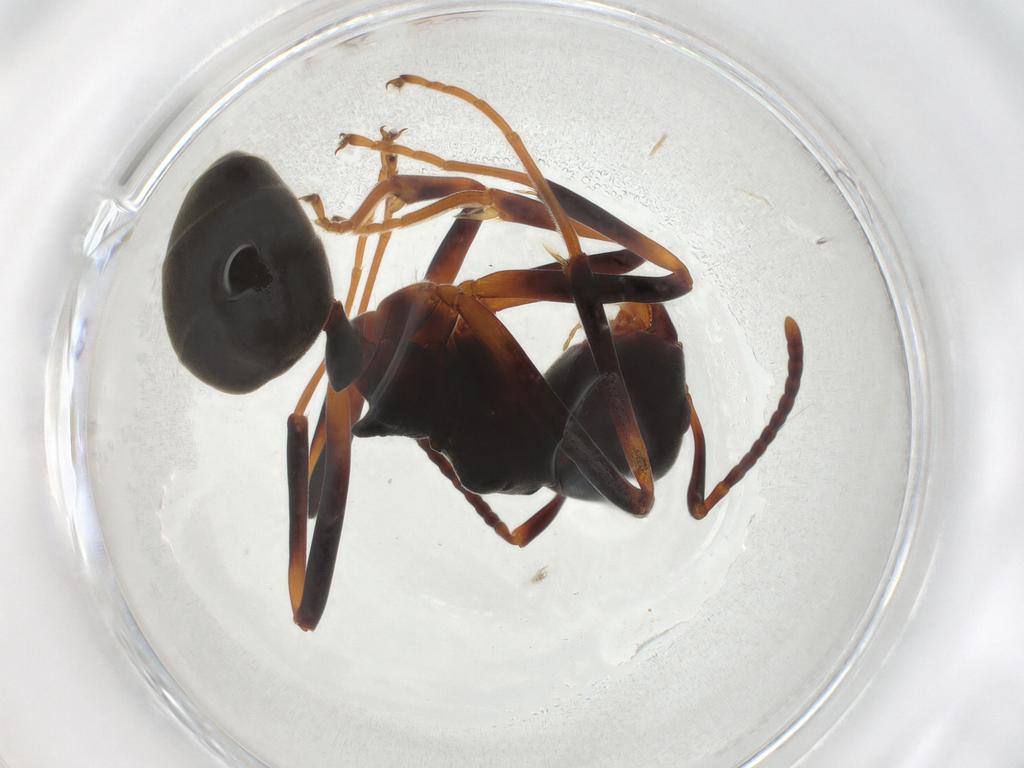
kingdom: Animalia
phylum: Arthropoda
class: Insecta
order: Hymenoptera
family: Formicidae
